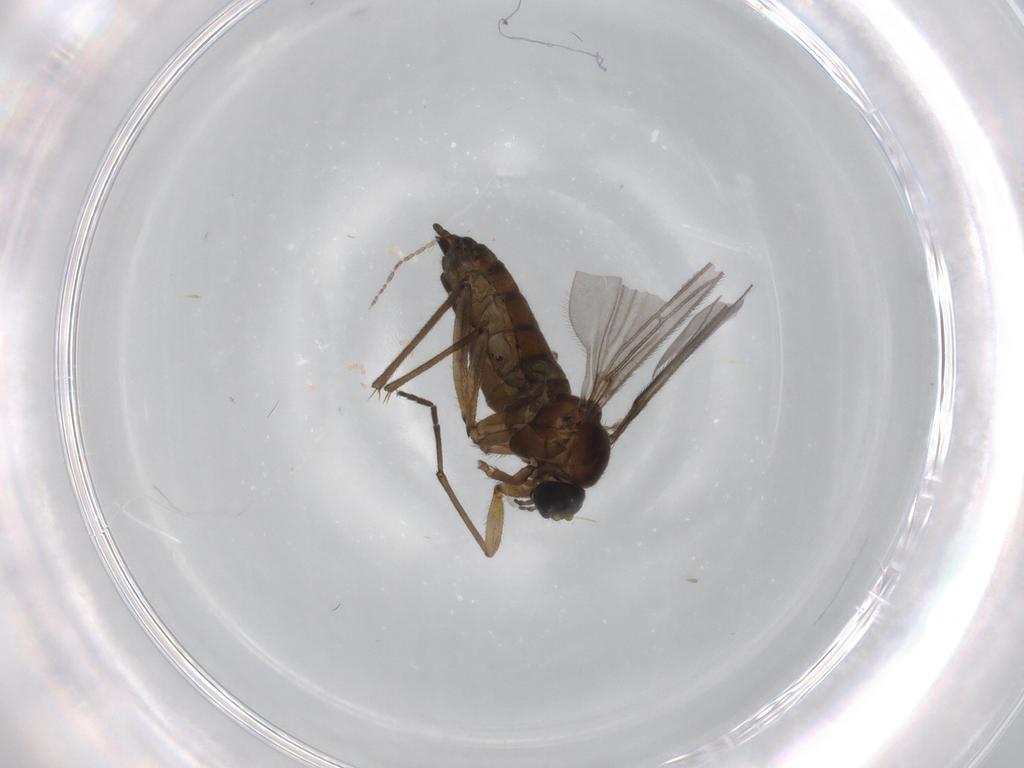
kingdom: Animalia
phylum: Arthropoda
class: Insecta
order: Diptera
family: Sciaridae
